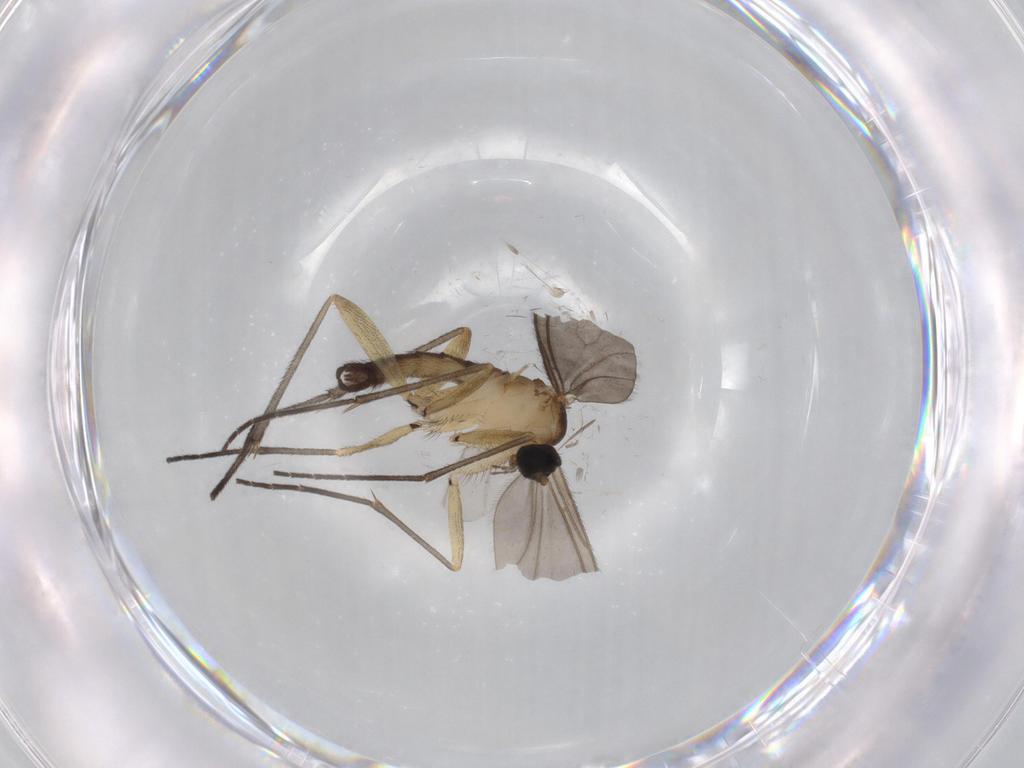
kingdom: Animalia
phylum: Arthropoda
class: Insecta
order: Diptera
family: Sciaridae
